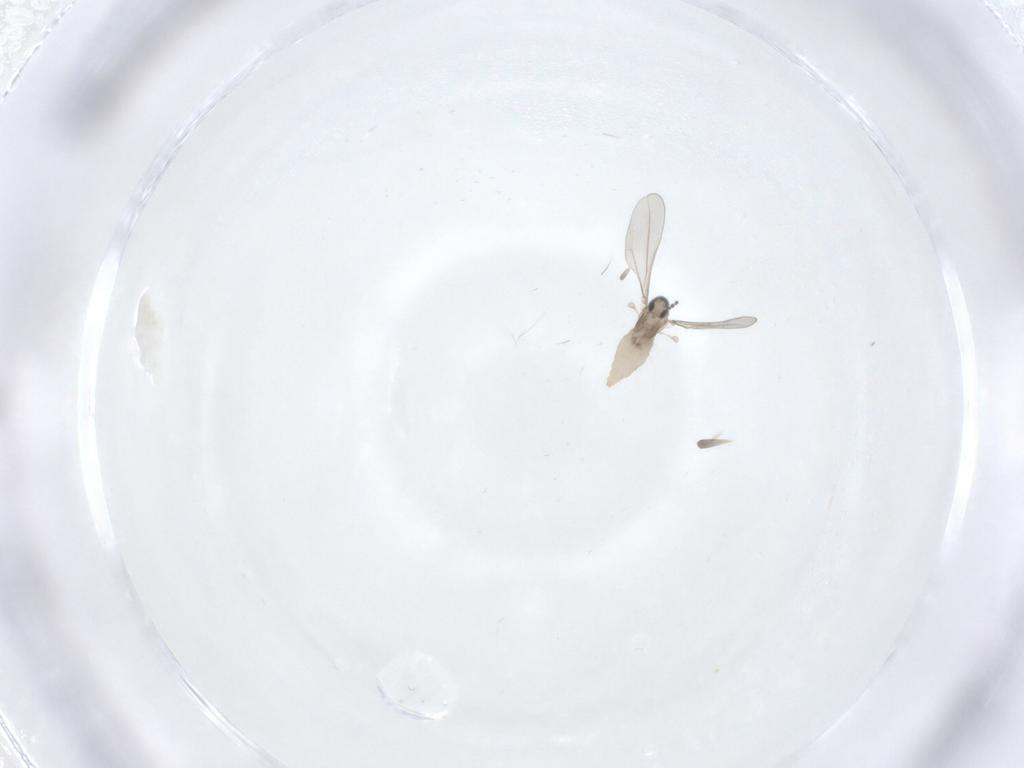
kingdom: Animalia
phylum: Arthropoda
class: Insecta
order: Diptera
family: Cecidomyiidae
